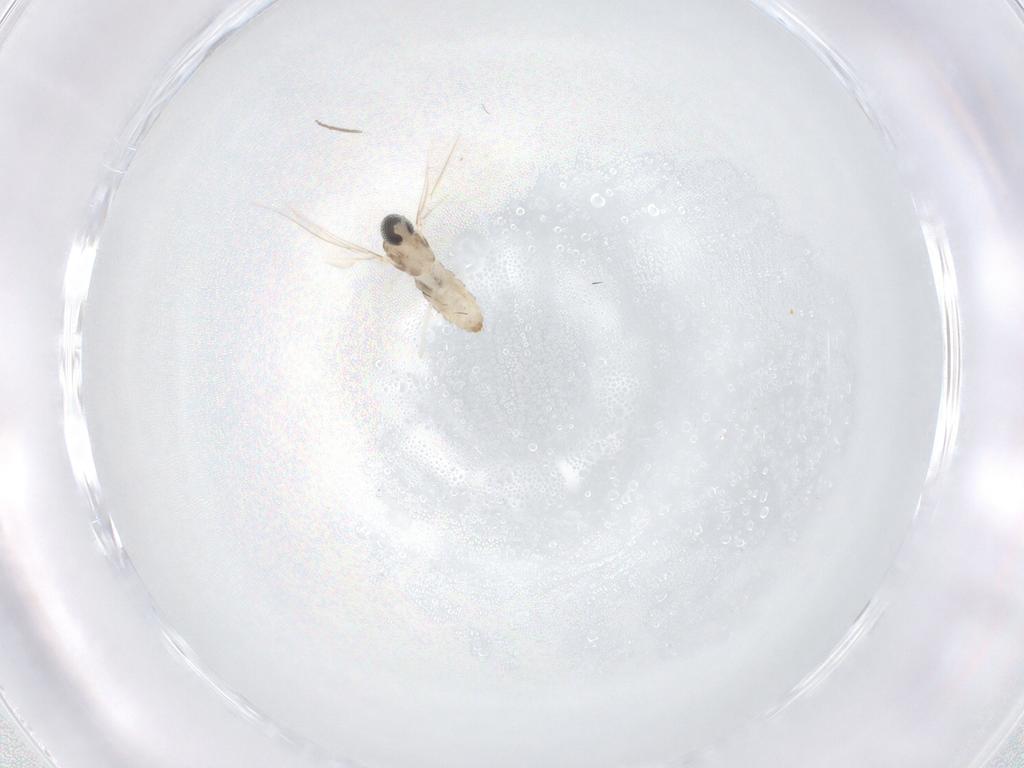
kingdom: Animalia
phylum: Arthropoda
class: Insecta
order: Diptera
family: Cecidomyiidae
